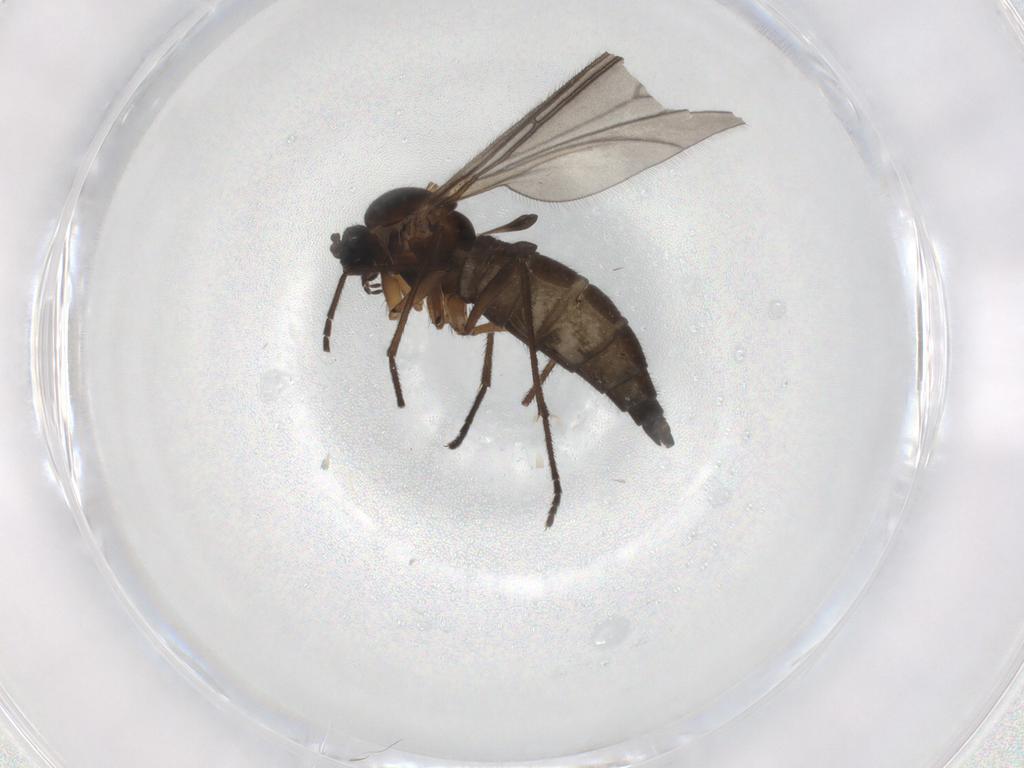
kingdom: Animalia
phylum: Arthropoda
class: Insecta
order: Diptera
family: Sciaridae
